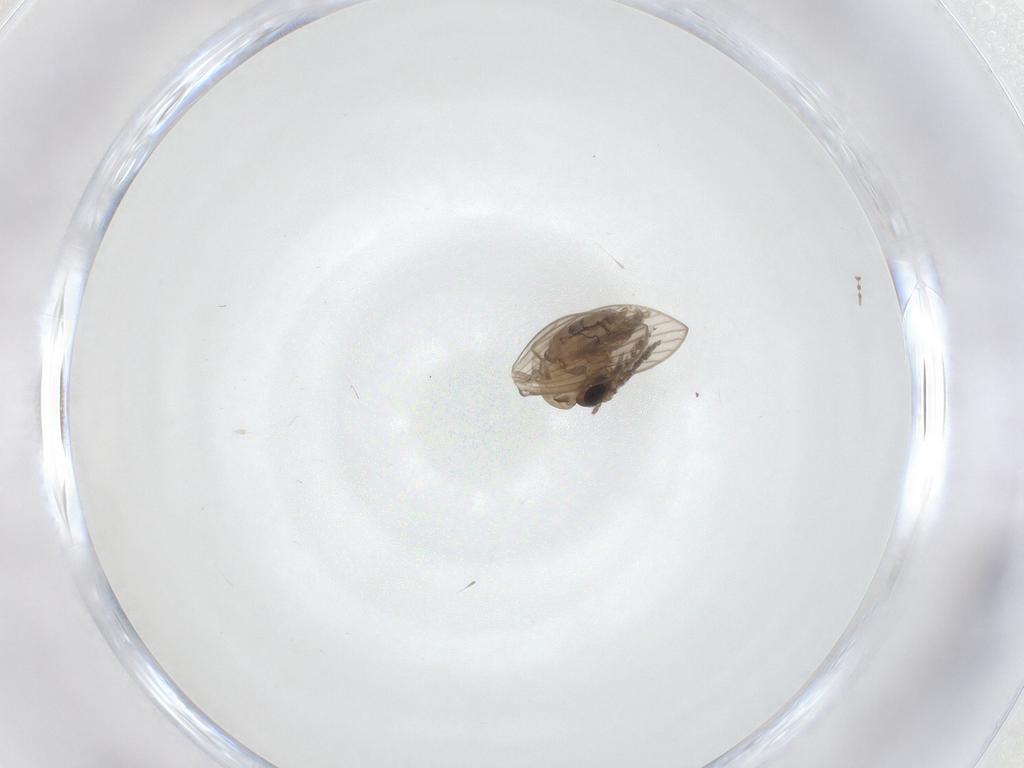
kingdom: Animalia
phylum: Arthropoda
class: Insecta
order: Diptera
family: Psychodidae
